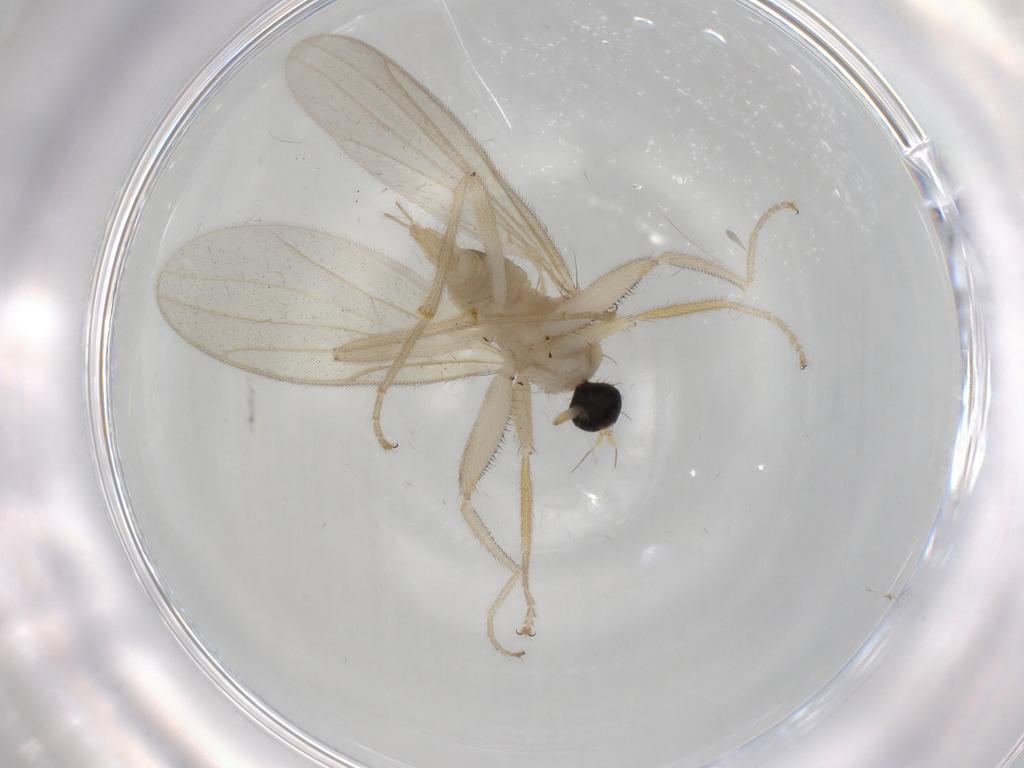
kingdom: Animalia
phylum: Arthropoda
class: Insecta
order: Diptera
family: Hybotidae
